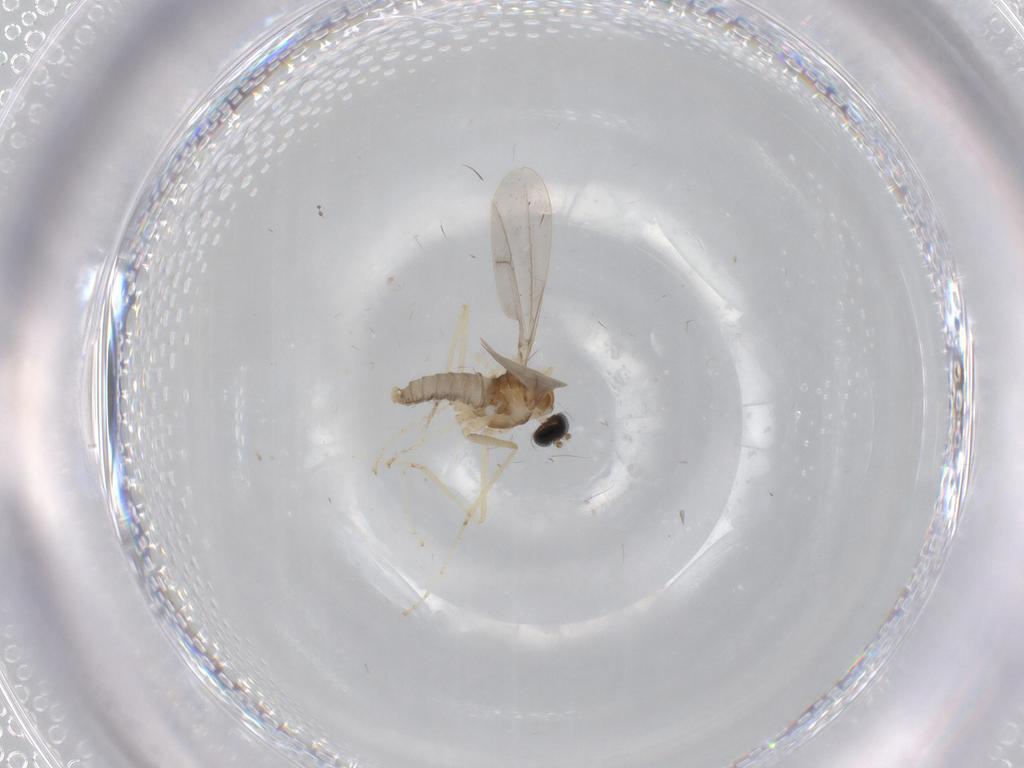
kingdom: Animalia
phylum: Arthropoda
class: Insecta
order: Diptera
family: Cecidomyiidae
